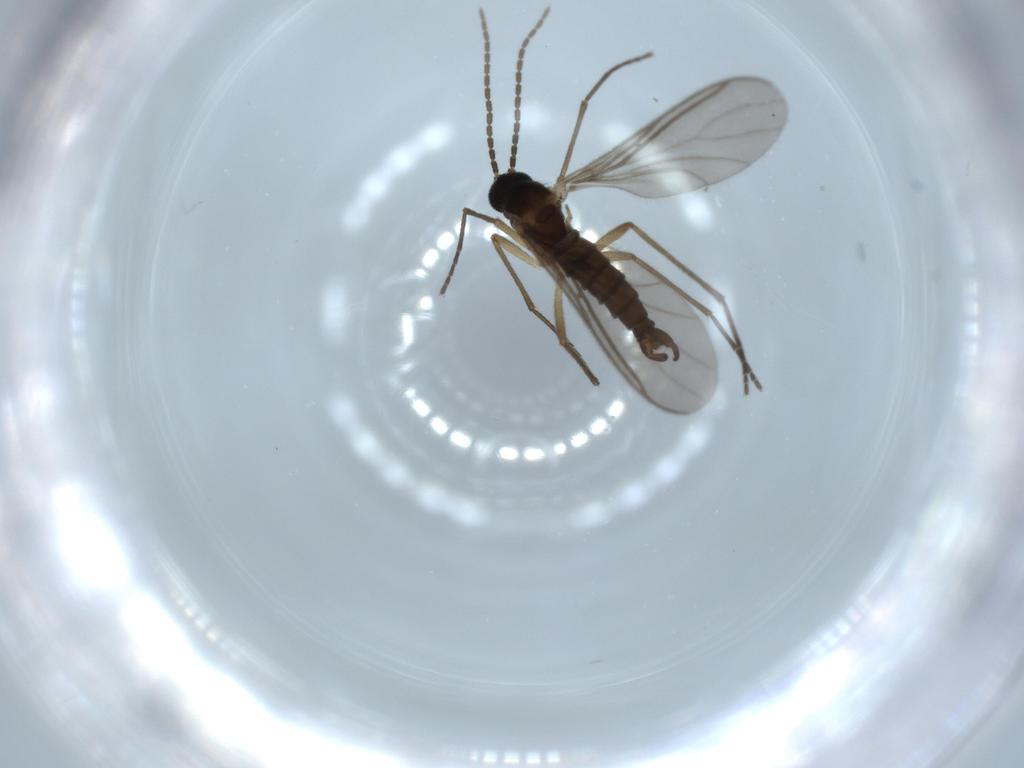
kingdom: Animalia
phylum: Arthropoda
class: Insecta
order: Diptera
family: Sciaridae
